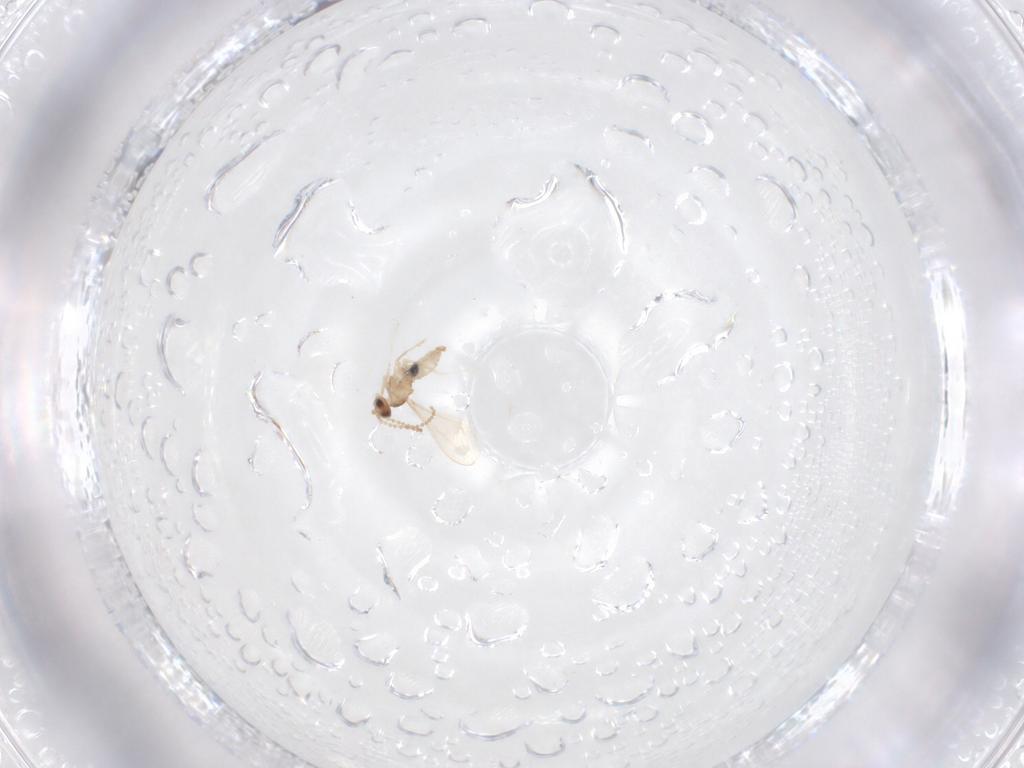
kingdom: Animalia
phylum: Arthropoda
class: Insecta
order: Diptera
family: Cecidomyiidae
